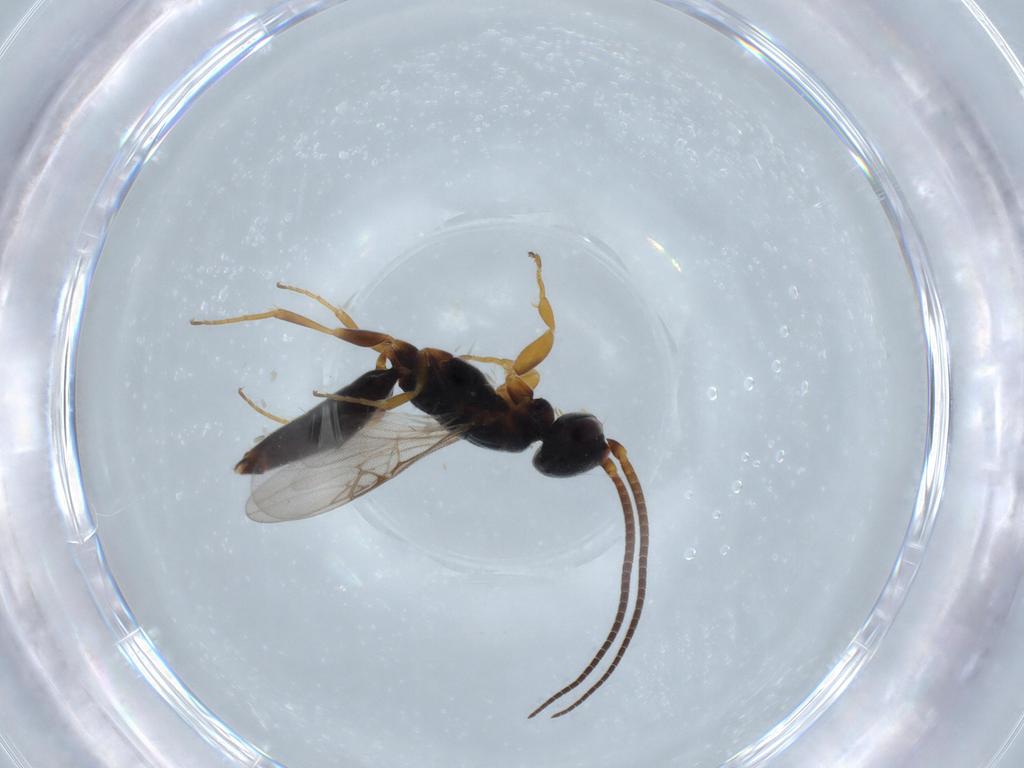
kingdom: Animalia
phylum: Arthropoda
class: Insecta
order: Hymenoptera
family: Sclerogibbidae
